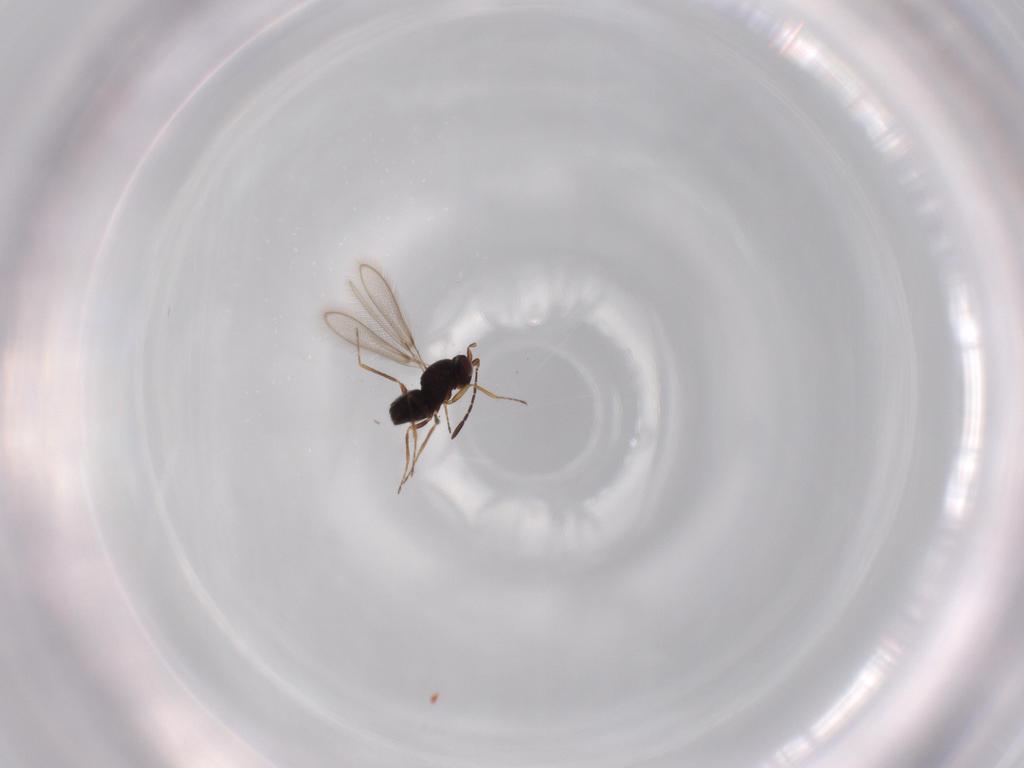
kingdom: Animalia
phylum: Arthropoda
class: Insecta
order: Hymenoptera
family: Mymaridae
